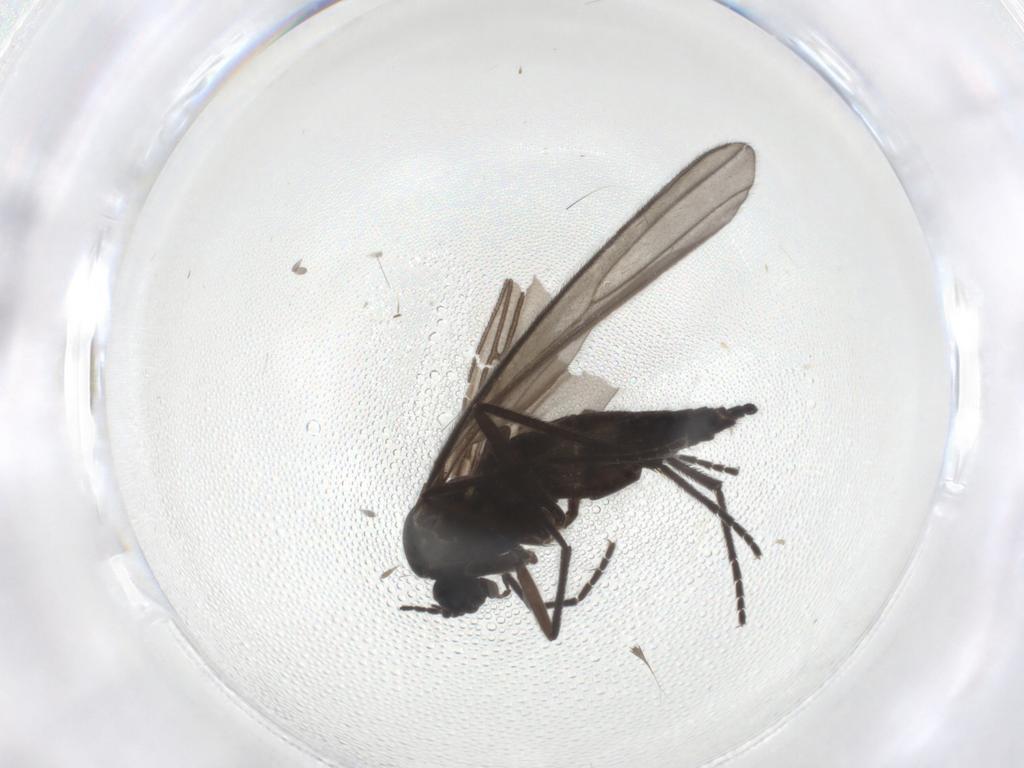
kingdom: Animalia
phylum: Arthropoda
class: Insecta
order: Diptera
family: Sciaridae
